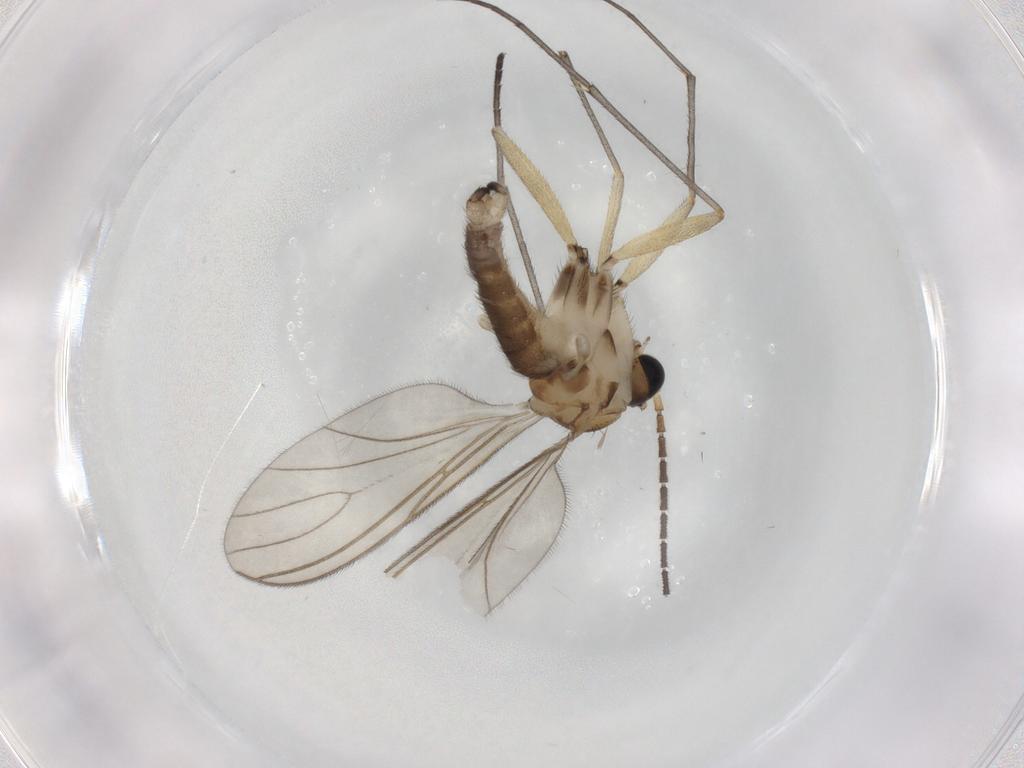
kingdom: Animalia
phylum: Arthropoda
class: Insecta
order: Diptera
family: Sciaridae
